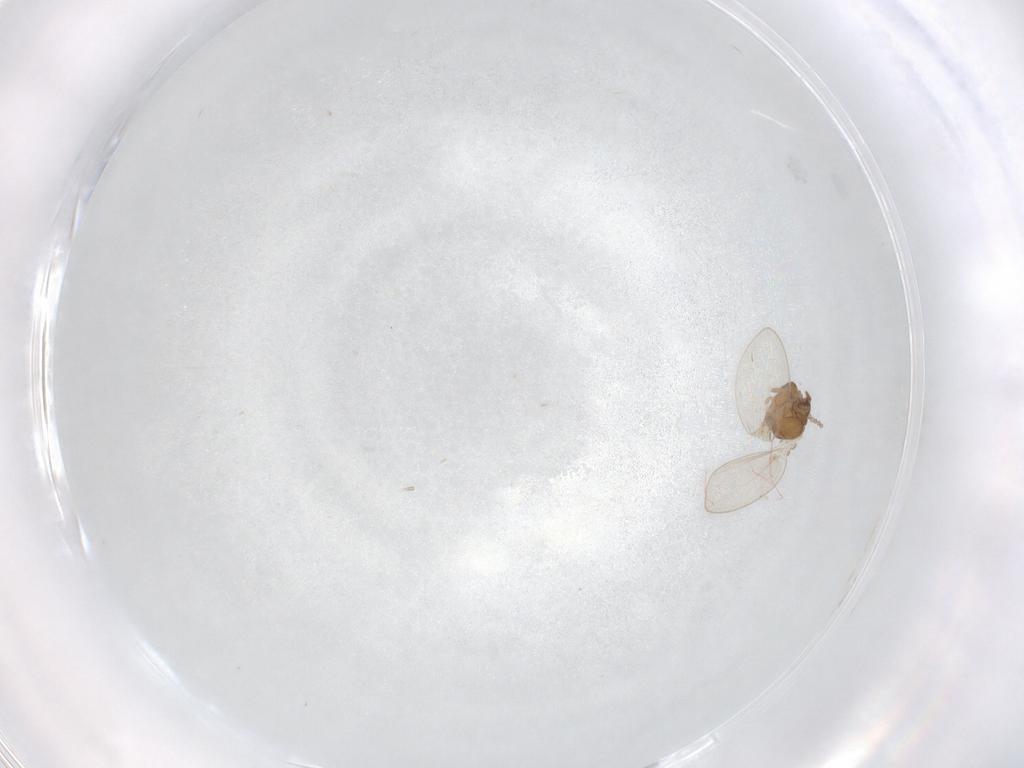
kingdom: Animalia
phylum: Arthropoda
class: Insecta
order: Diptera
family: Psychodidae
